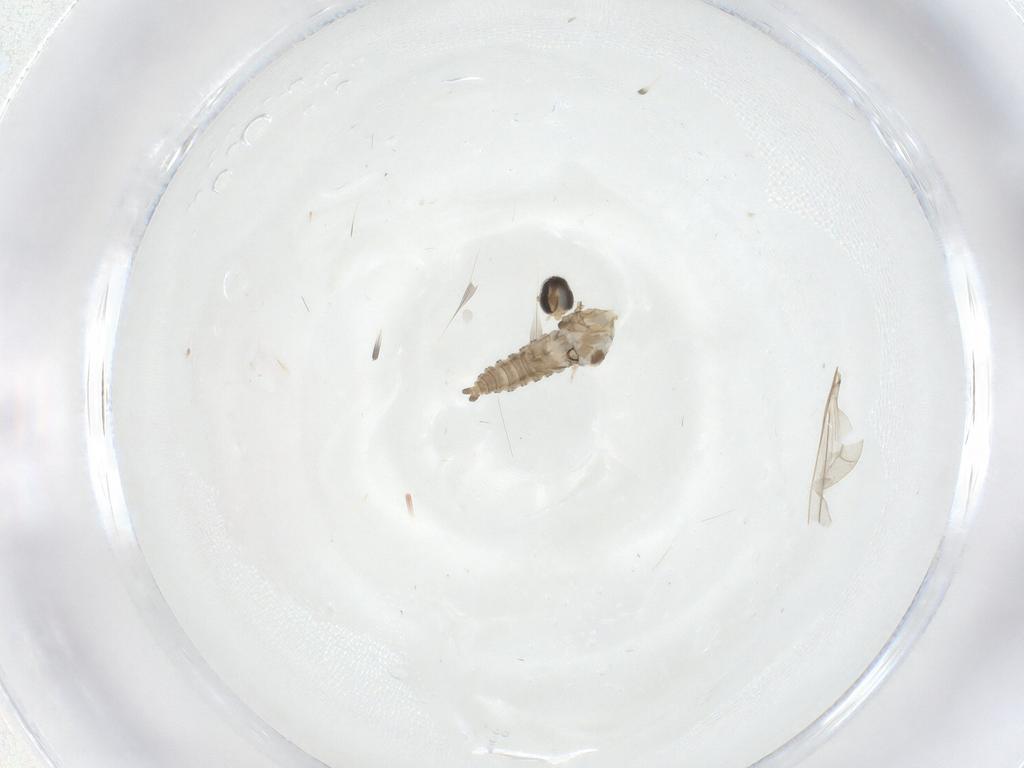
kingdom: Animalia
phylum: Arthropoda
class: Insecta
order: Diptera
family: Cecidomyiidae
